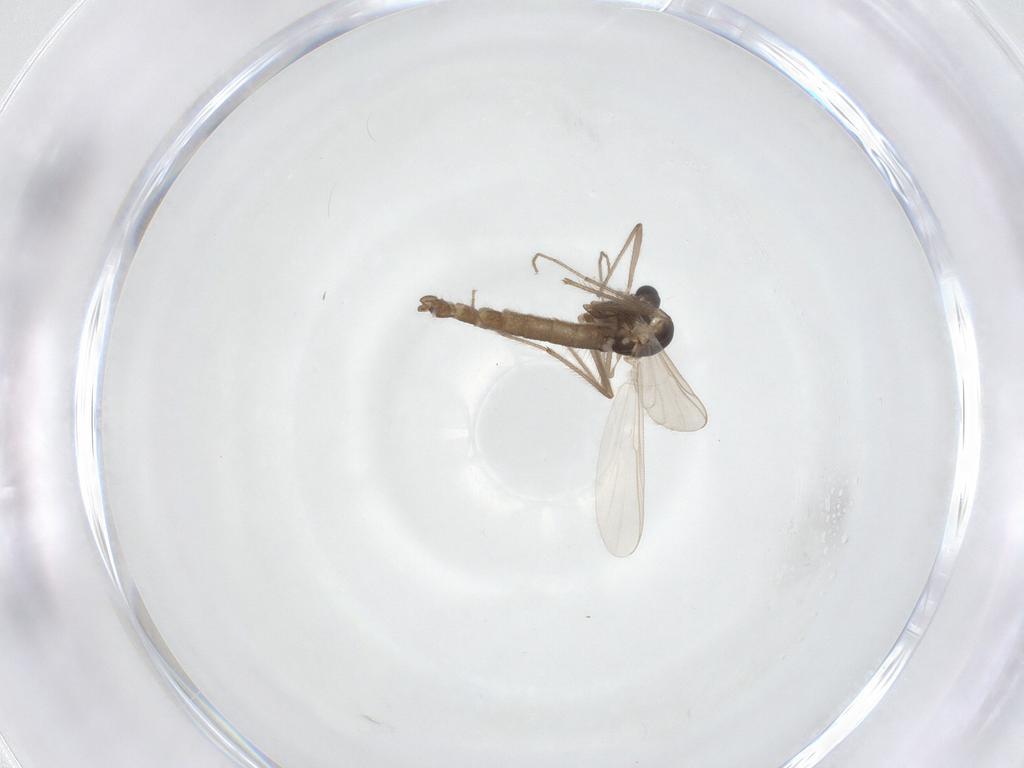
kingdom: Animalia
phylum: Arthropoda
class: Insecta
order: Diptera
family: Chironomidae
